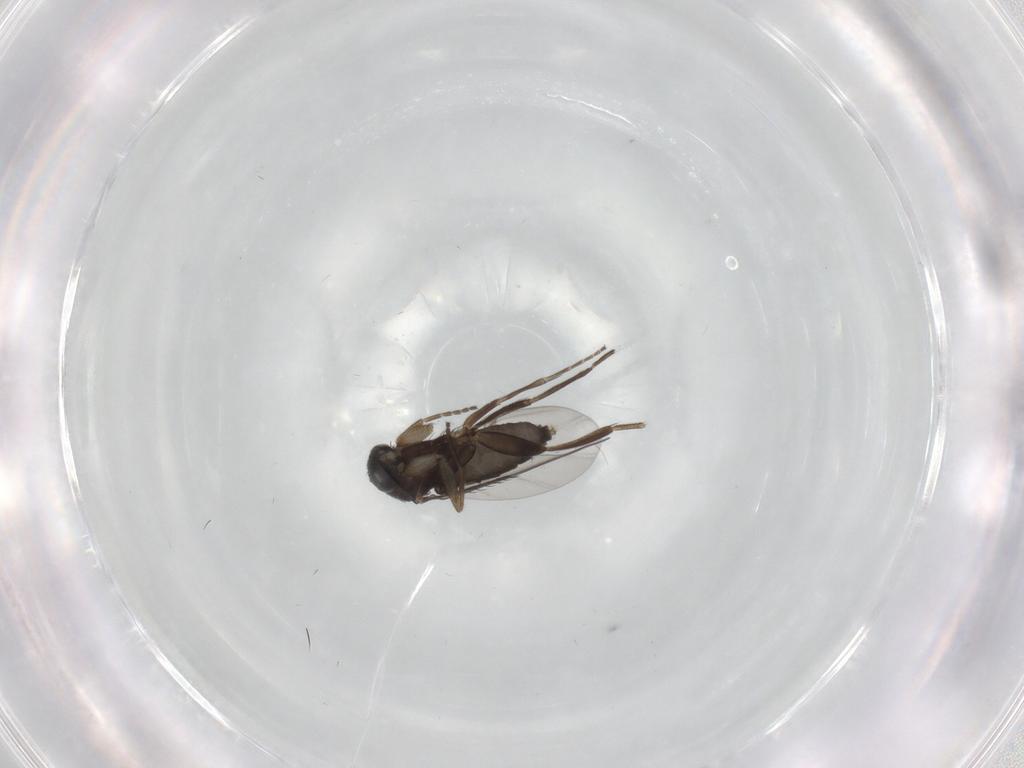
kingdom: Animalia
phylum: Arthropoda
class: Insecta
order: Diptera
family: Phoridae
